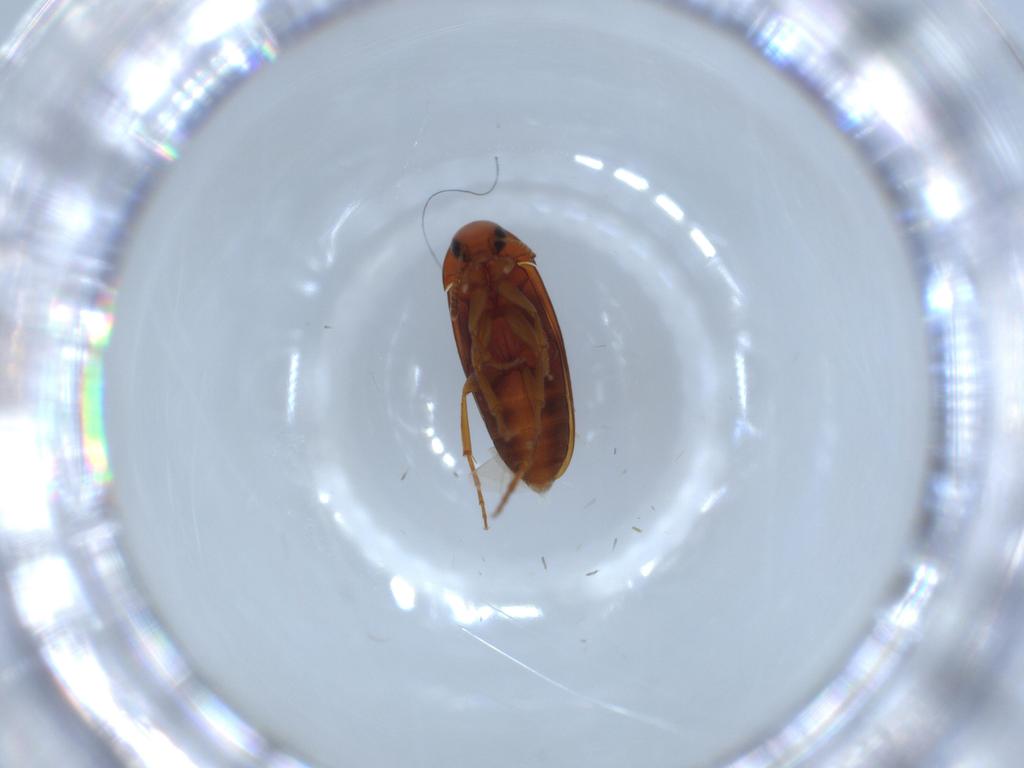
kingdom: Animalia
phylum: Arthropoda
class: Insecta
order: Coleoptera
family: Scraptiidae
